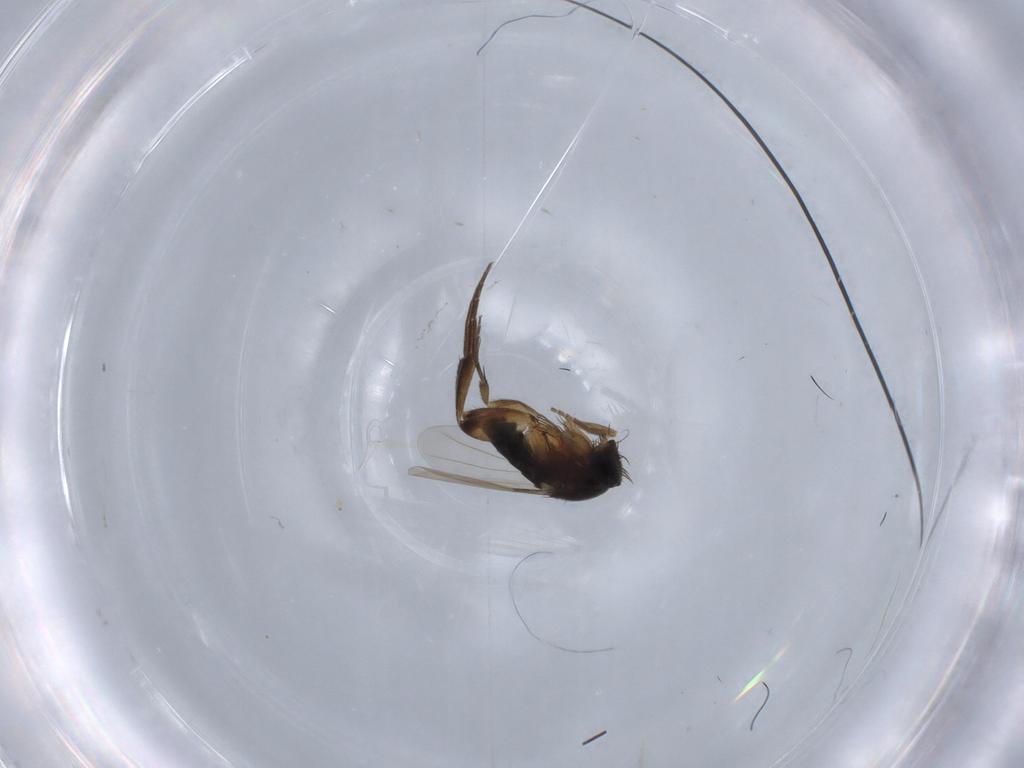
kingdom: Animalia
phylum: Arthropoda
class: Insecta
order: Diptera
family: Phoridae
